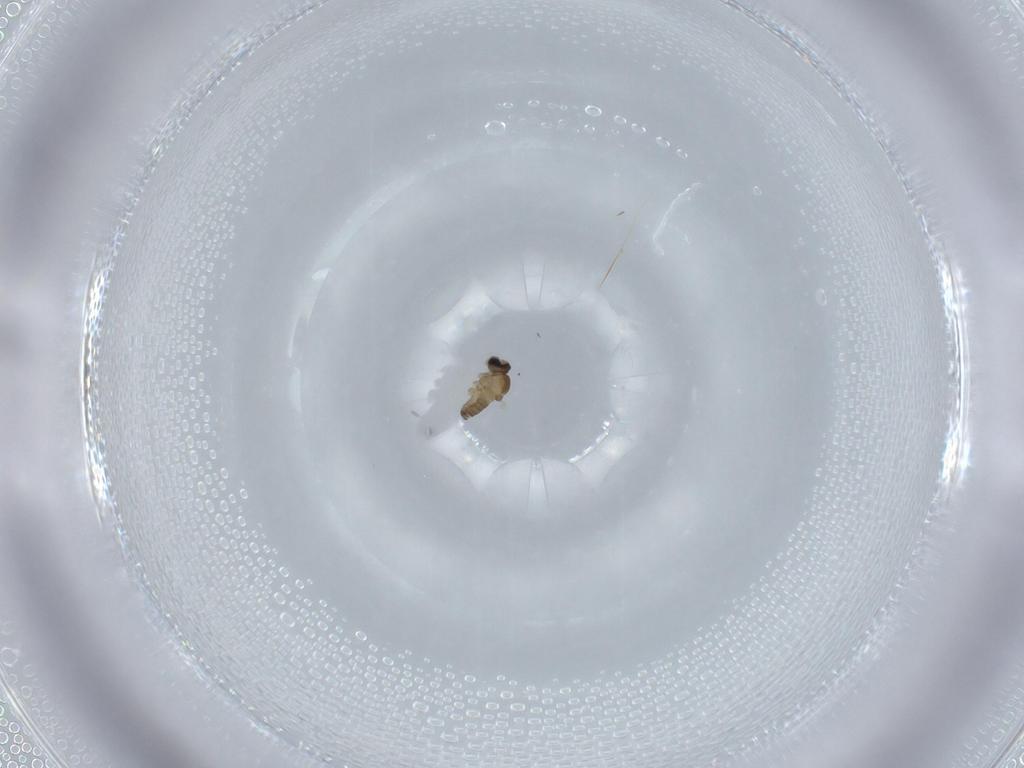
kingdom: Animalia
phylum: Arthropoda
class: Insecta
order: Diptera
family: Cecidomyiidae
